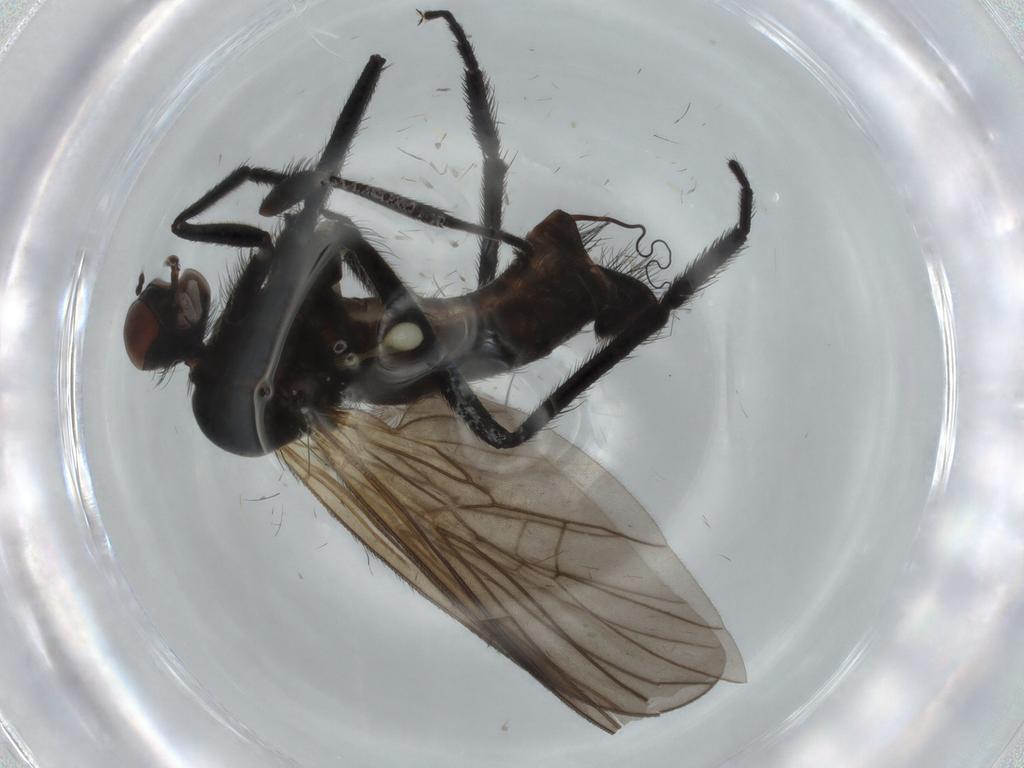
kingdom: Animalia
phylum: Arthropoda
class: Insecta
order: Diptera
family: Empididae
